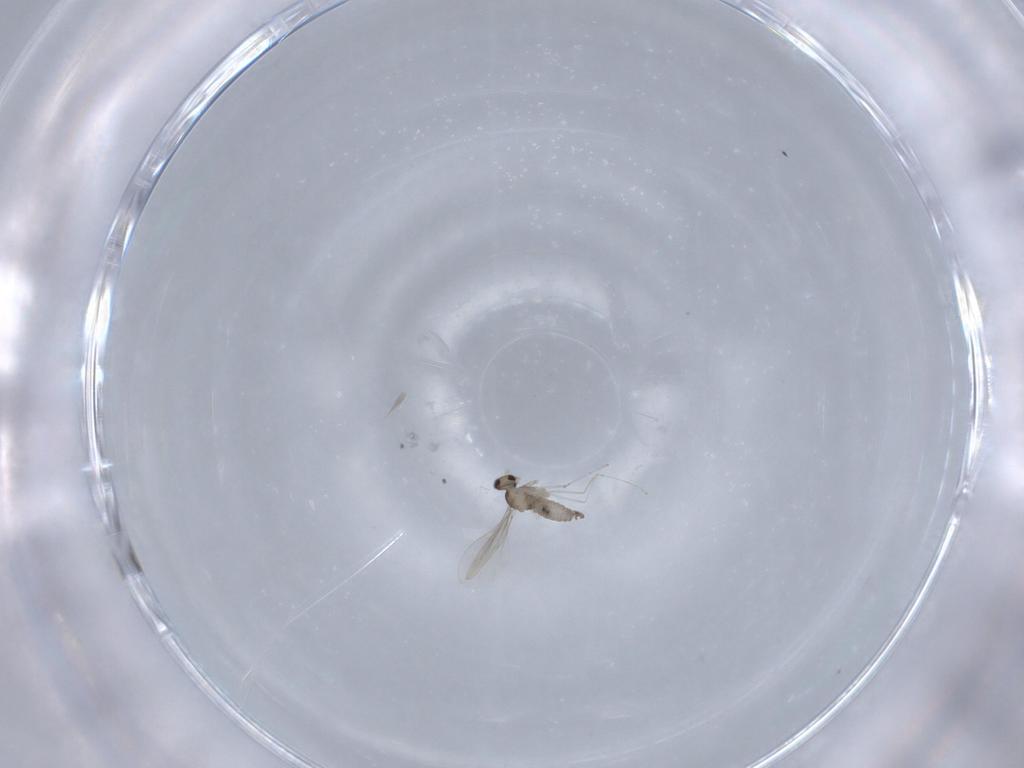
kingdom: Animalia
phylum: Arthropoda
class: Insecta
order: Diptera
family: Cecidomyiidae
